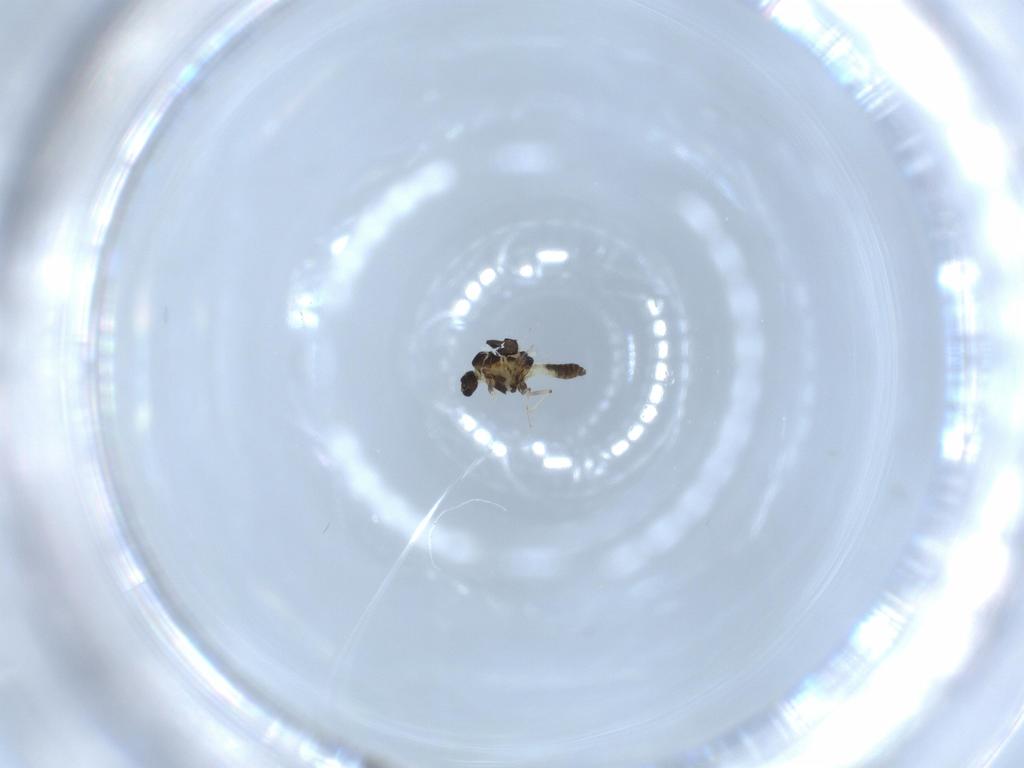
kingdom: Animalia
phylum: Arthropoda
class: Insecta
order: Diptera
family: Chironomidae
